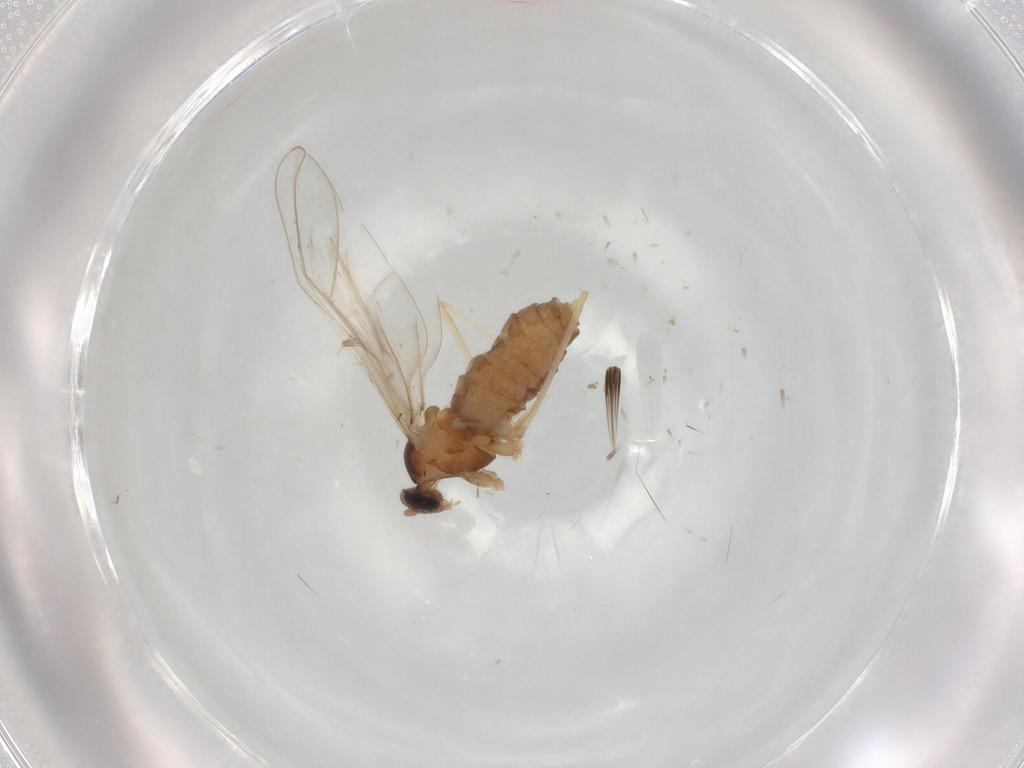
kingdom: Animalia
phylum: Arthropoda
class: Insecta
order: Diptera
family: Cecidomyiidae
